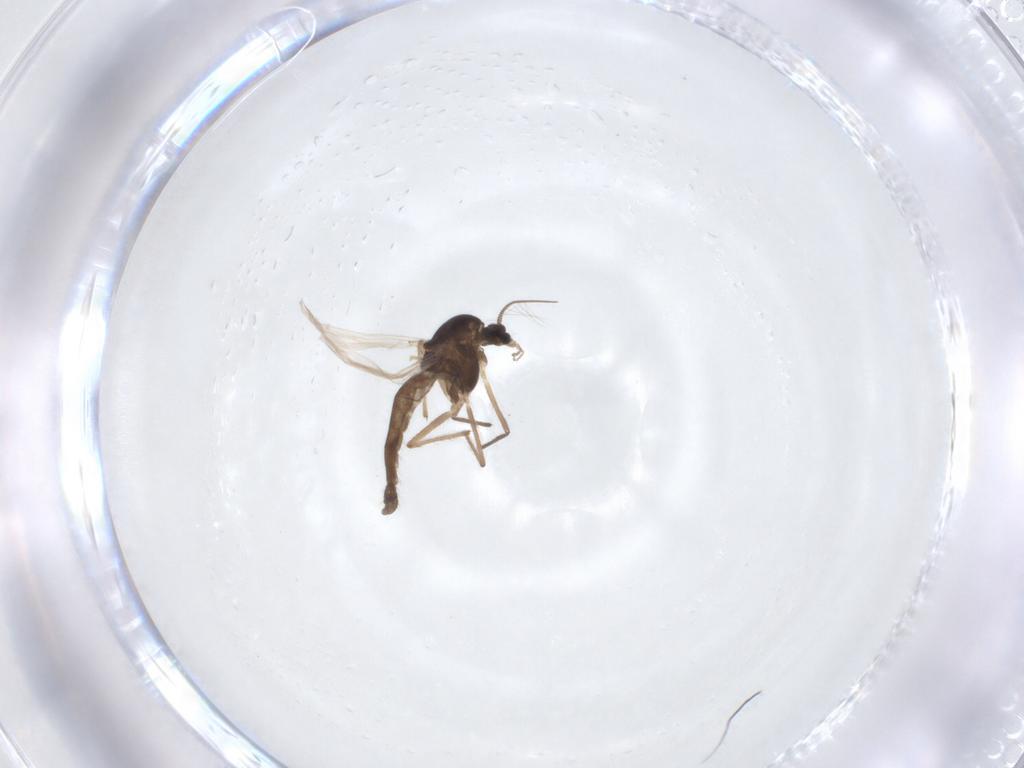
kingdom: Animalia
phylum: Arthropoda
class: Insecta
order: Diptera
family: Chironomidae
